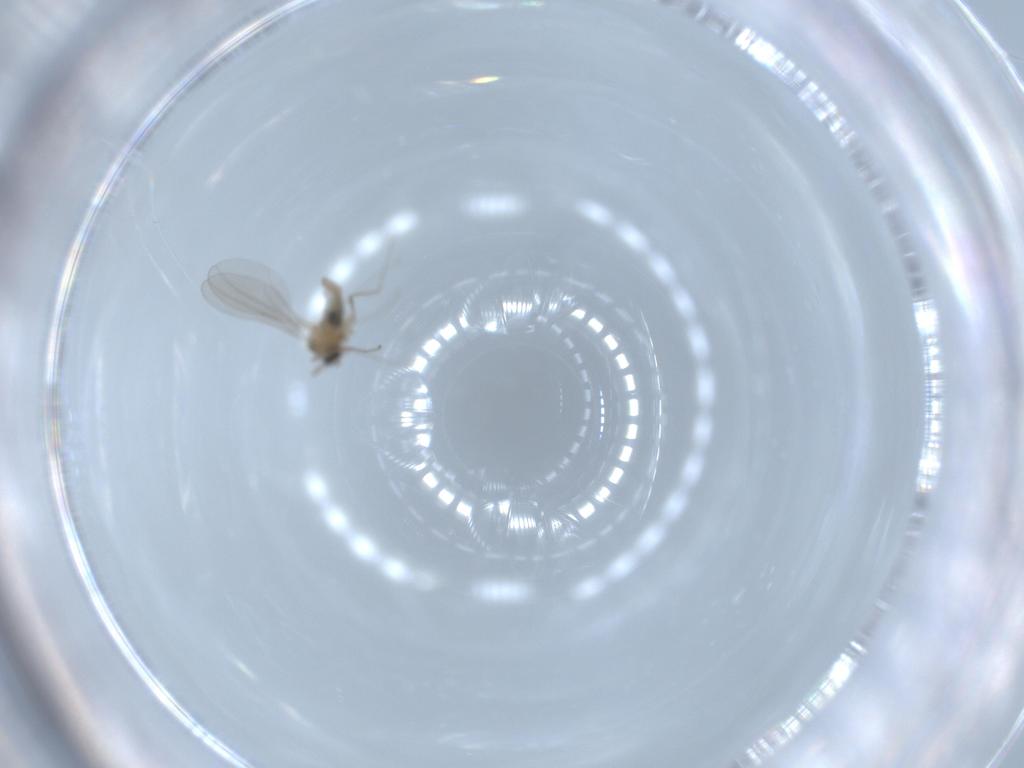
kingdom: Animalia
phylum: Arthropoda
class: Insecta
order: Diptera
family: Cecidomyiidae
